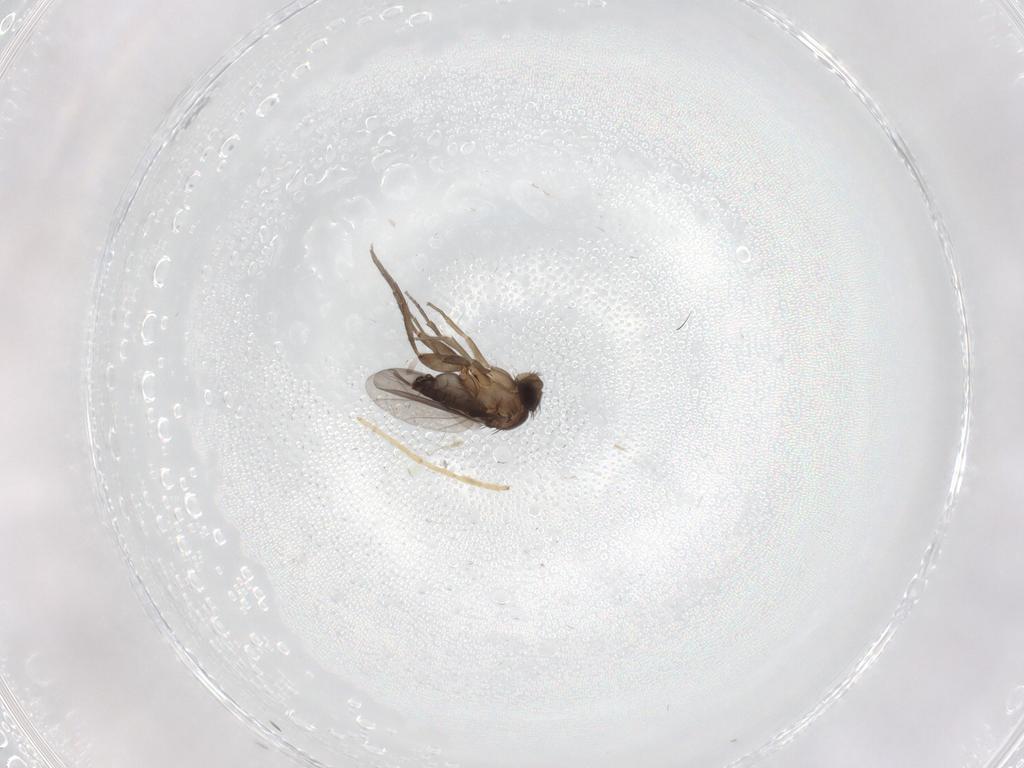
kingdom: Animalia
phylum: Arthropoda
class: Insecta
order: Diptera
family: Phoridae
